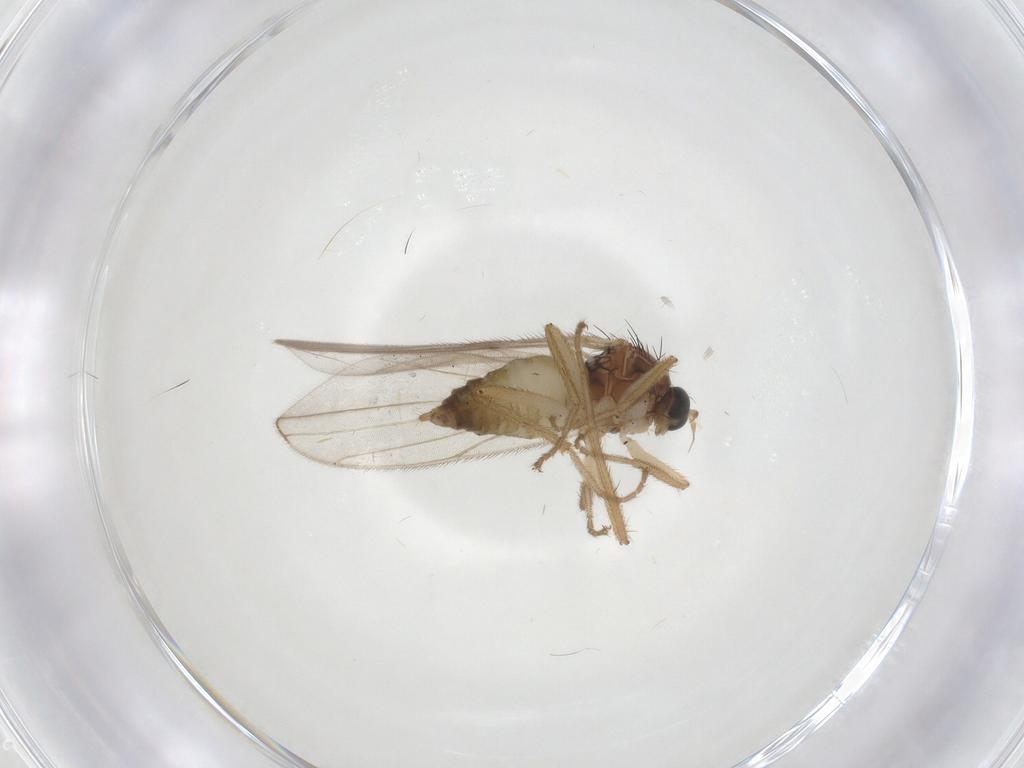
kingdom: Animalia
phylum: Arthropoda
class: Insecta
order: Diptera
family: Hybotidae
